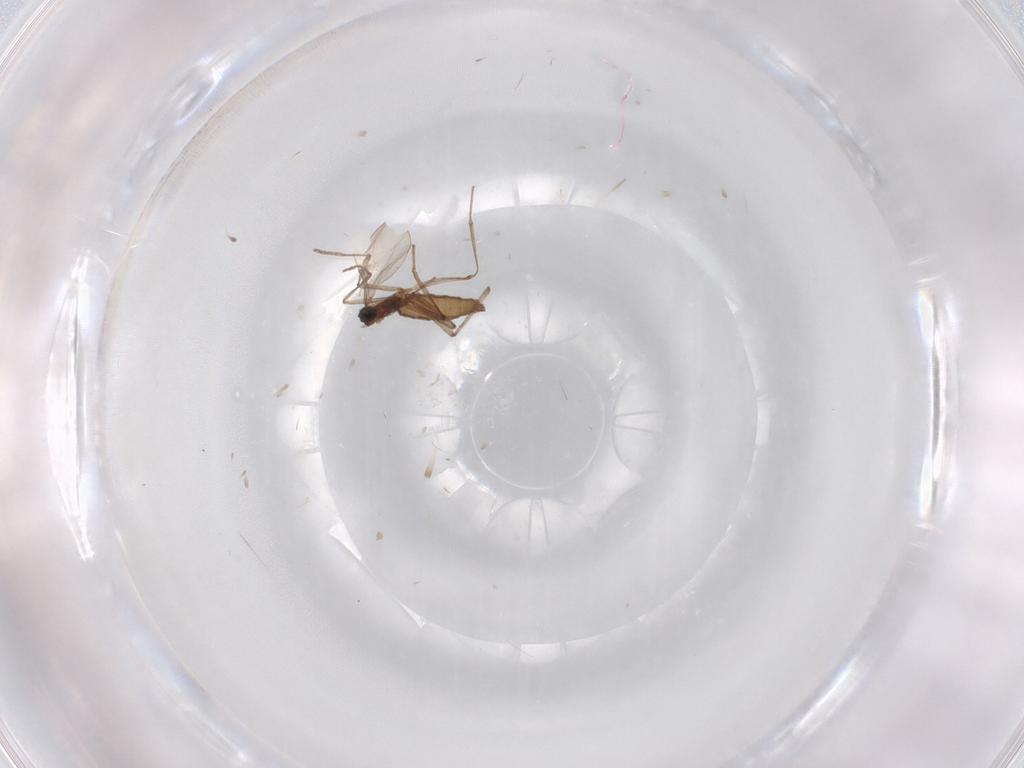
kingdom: Animalia
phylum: Arthropoda
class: Insecta
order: Diptera
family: Cecidomyiidae
